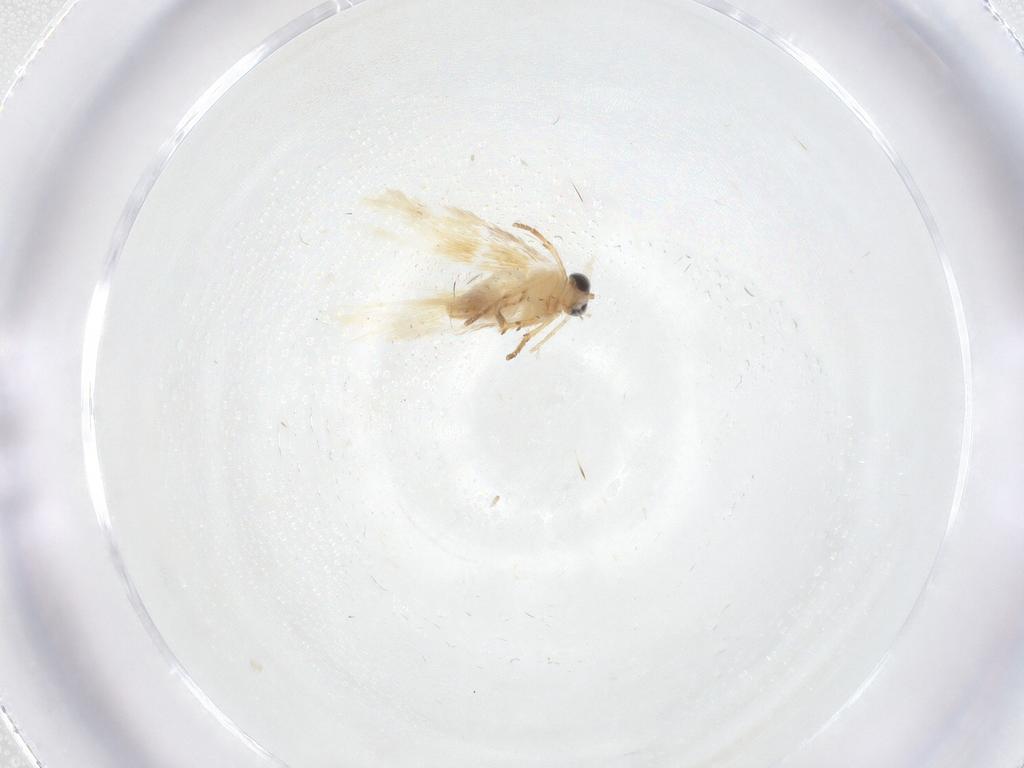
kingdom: Animalia
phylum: Arthropoda
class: Insecta
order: Lepidoptera
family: Nepticulidae
